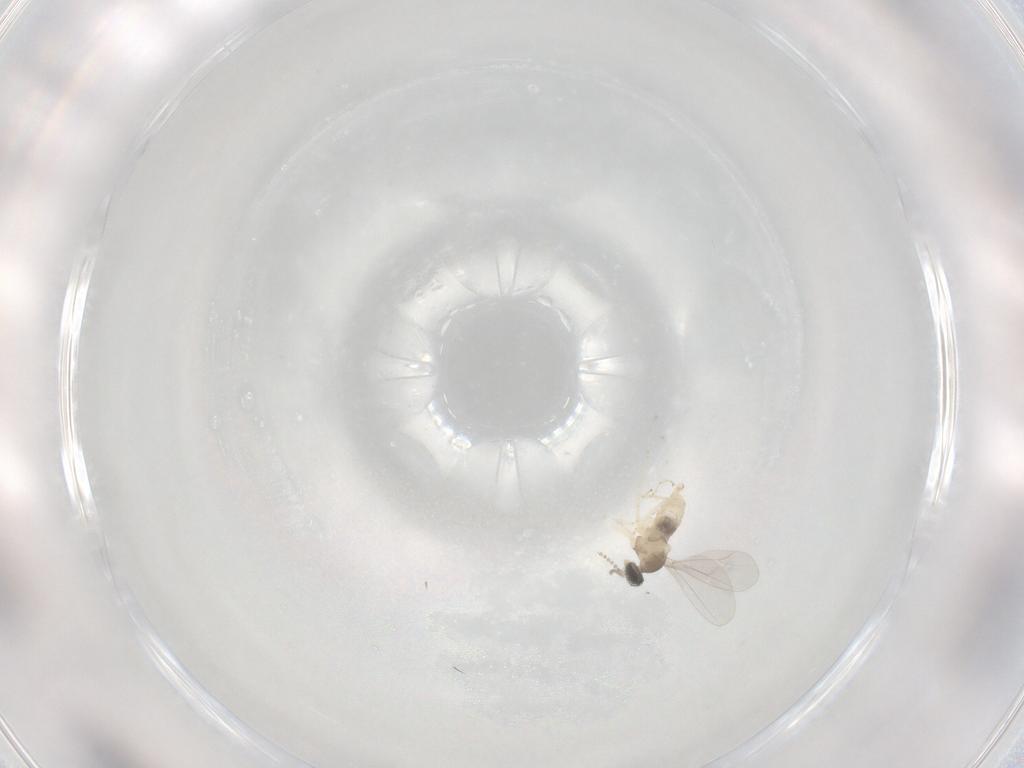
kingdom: Animalia
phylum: Arthropoda
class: Insecta
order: Diptera
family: Cecidomyiidae
